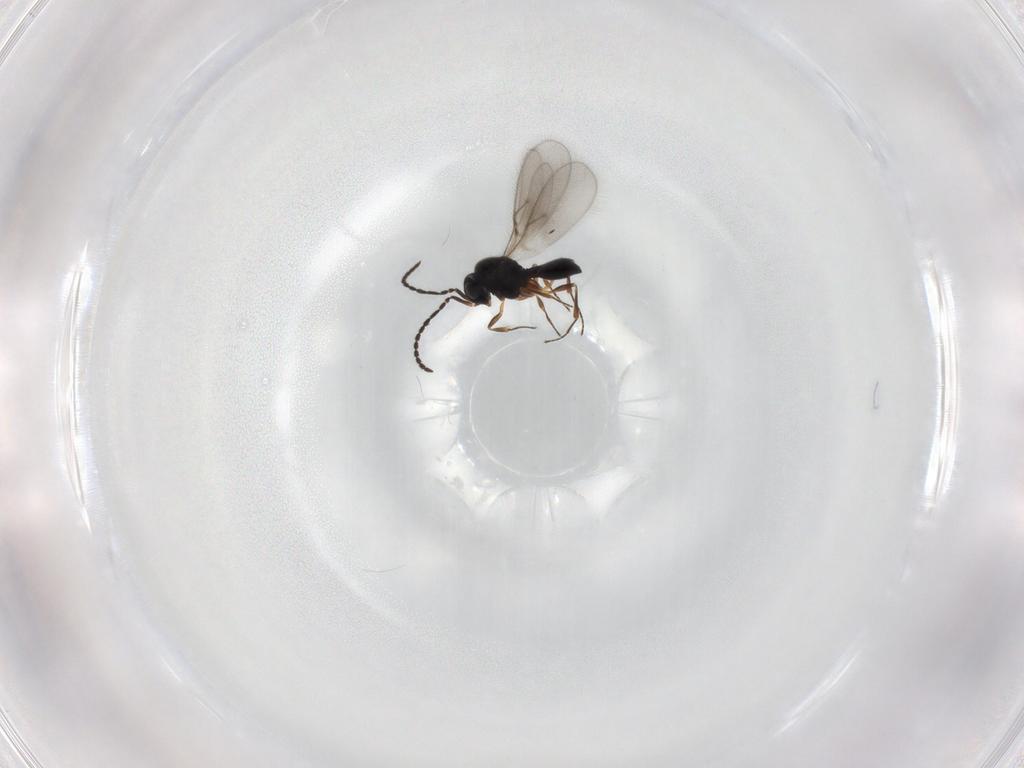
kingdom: Animalia
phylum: Arthropoda
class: Insecta
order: Hymenoptera
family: Scelionidae
